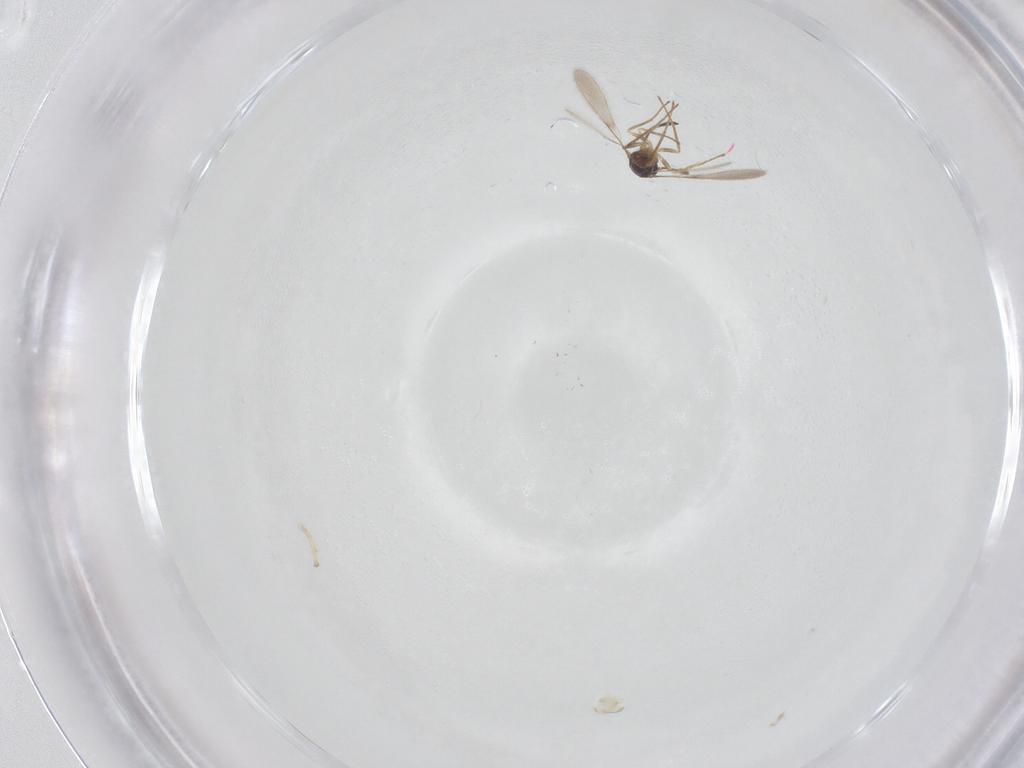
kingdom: Animalia
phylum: Arthropoda
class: Insecta
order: Hymenoptera
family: Mymaridae
